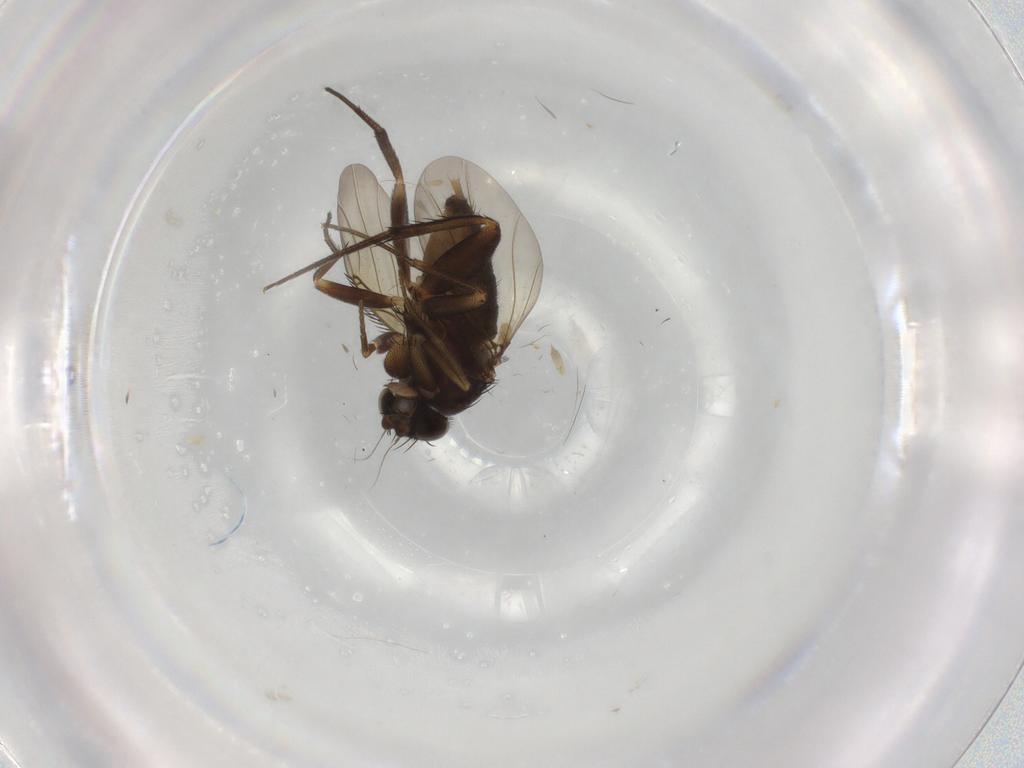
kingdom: Animalia
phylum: Arthropoda
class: Insecta
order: Diptera
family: Phoridae
